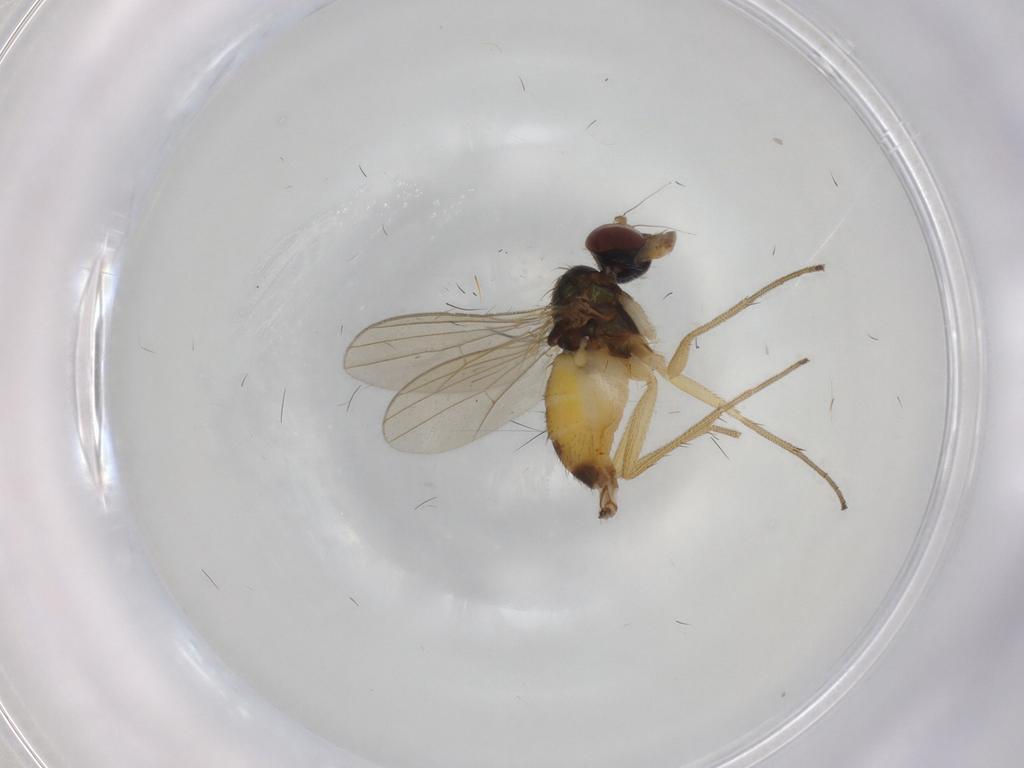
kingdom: Animalia
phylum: Arthropoda
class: Insecta
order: Diptera
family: Dolichopodidae
